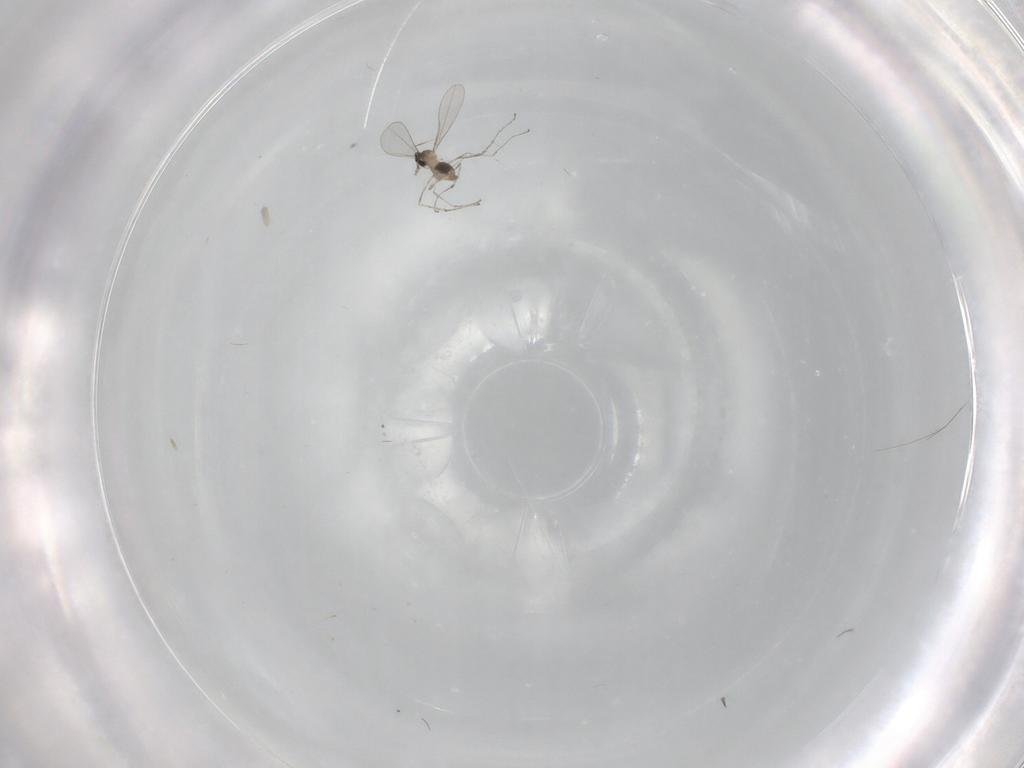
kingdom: Animalia
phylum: Arthropoda
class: Insecta
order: Diptera
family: Cecidomyiidae
